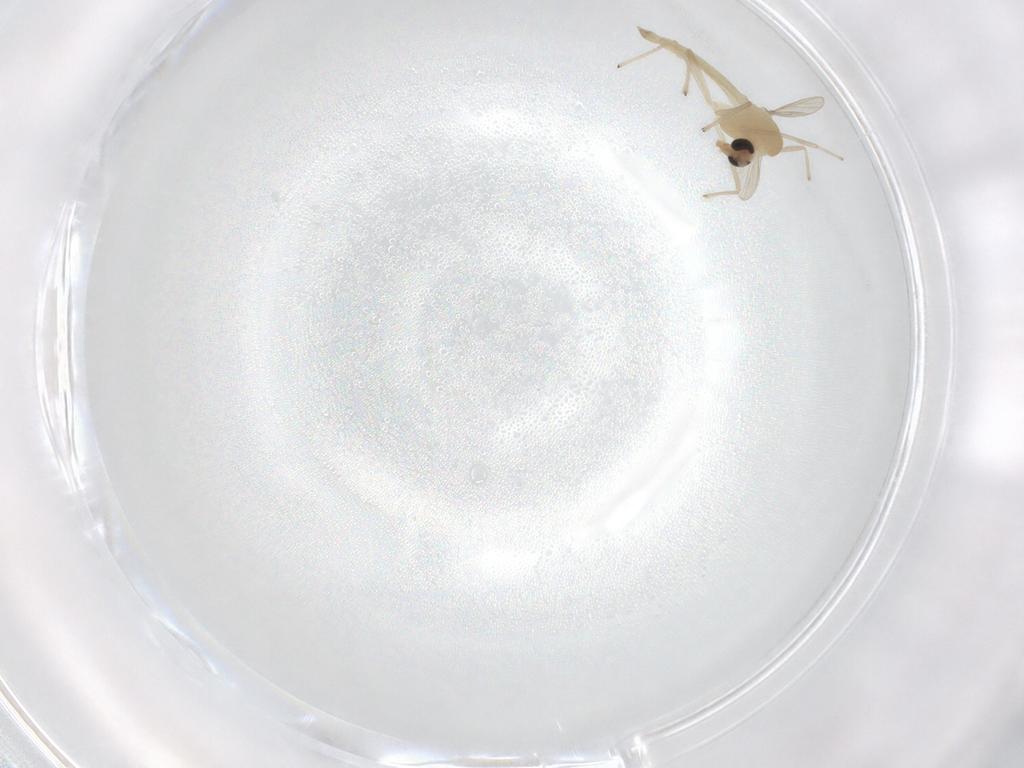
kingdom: Animalia
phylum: Arthropoda
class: Insecta
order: Diptera
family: Chironomidae
